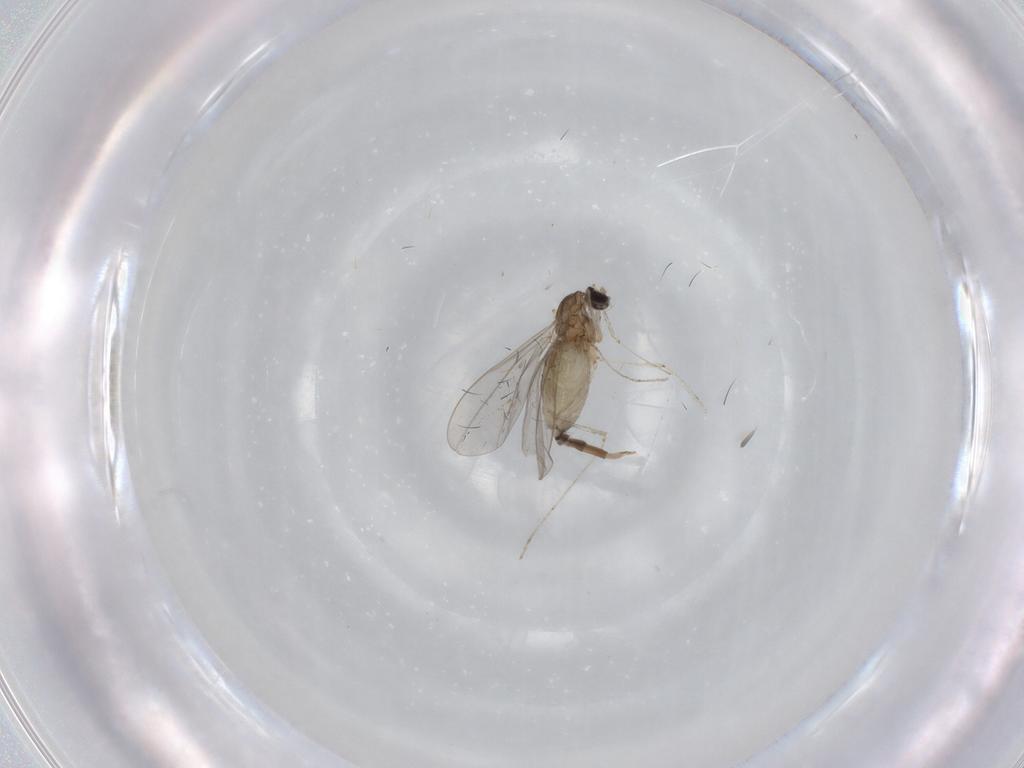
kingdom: Animalia
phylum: Arthropoda
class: Insecta
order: Diptera
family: Cecidomyiidae
